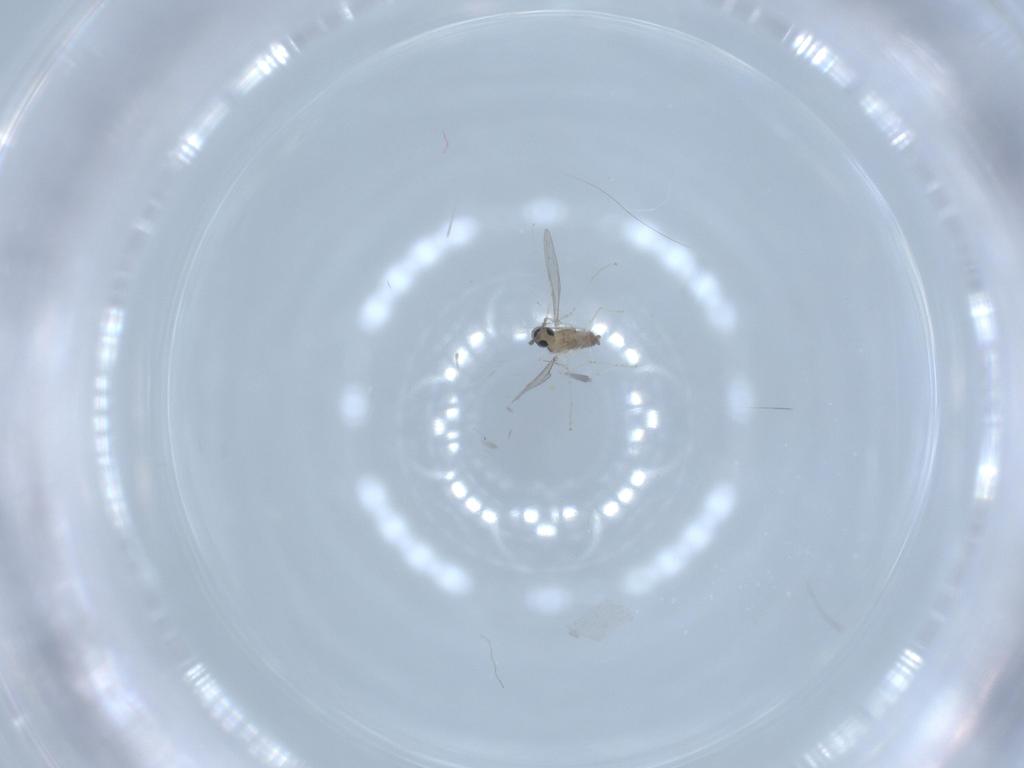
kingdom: Animalia
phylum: Arthropoda
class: Insecta
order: Diptera
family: Cecidomyiidae
